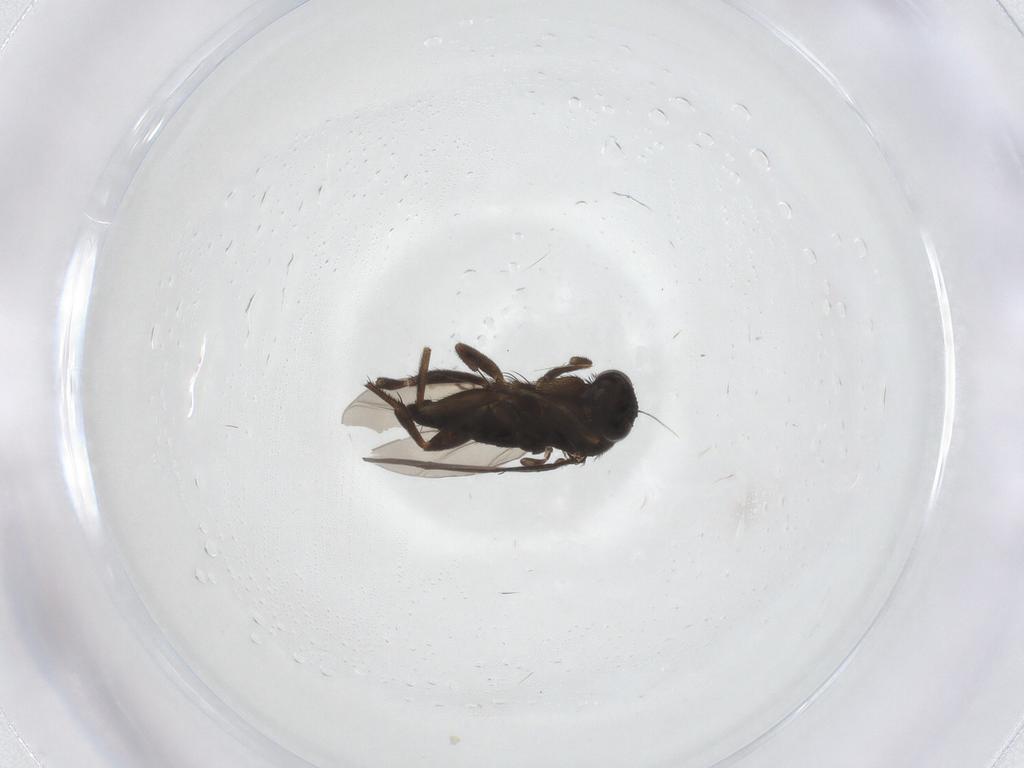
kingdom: Animalia
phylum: Arthropoda
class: Insecta
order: Diptera
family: Phoridae
